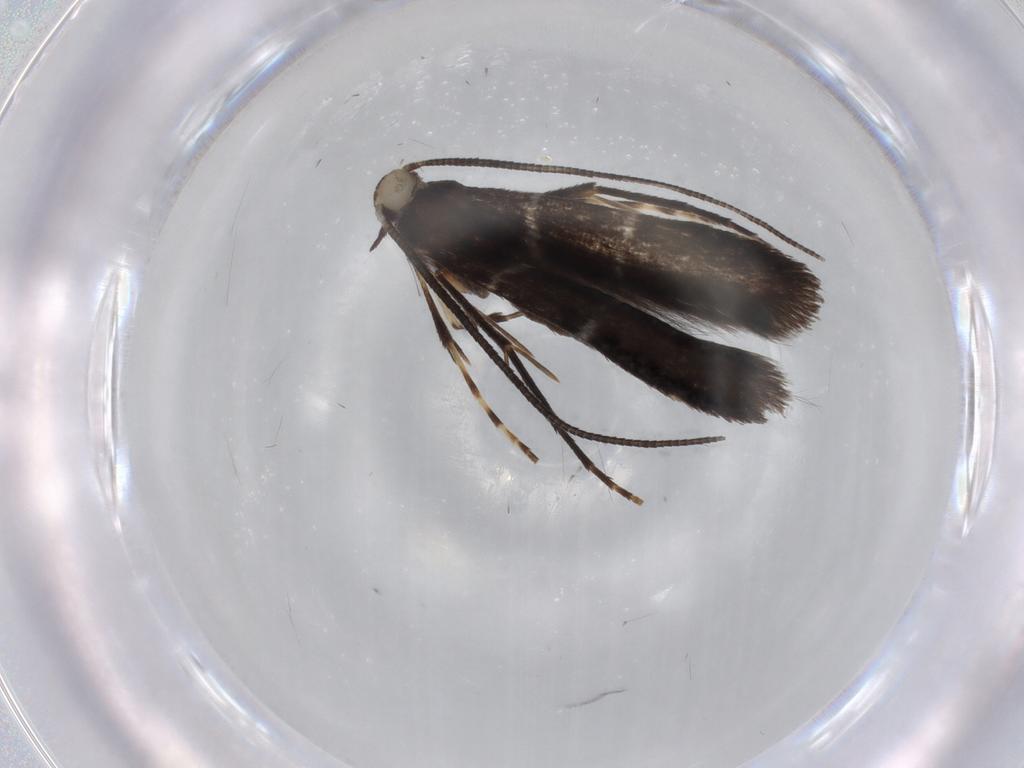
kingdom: Animalia
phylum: Arthropoda
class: Insecta
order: Lepidoptera
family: Gracillariidae
